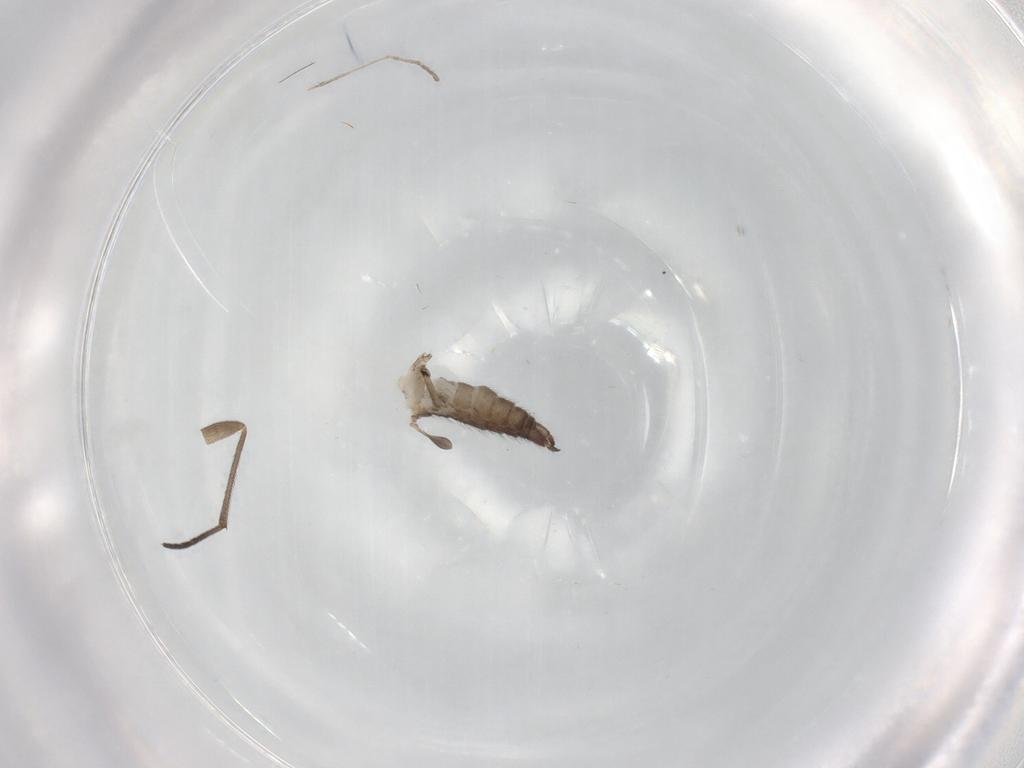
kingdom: Animalia
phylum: Arthropoda
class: Insecta
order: Diptera
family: Sciaridae
